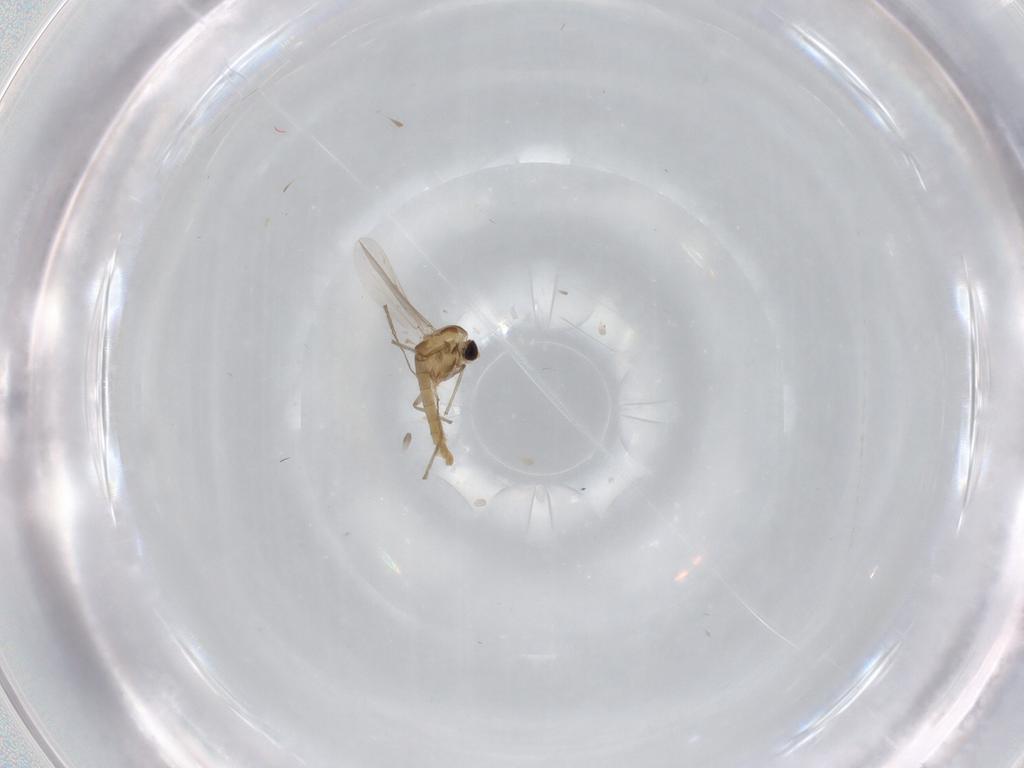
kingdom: Animalia
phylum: Arthropoda
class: Insecta
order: Diptera
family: Chironomidae
